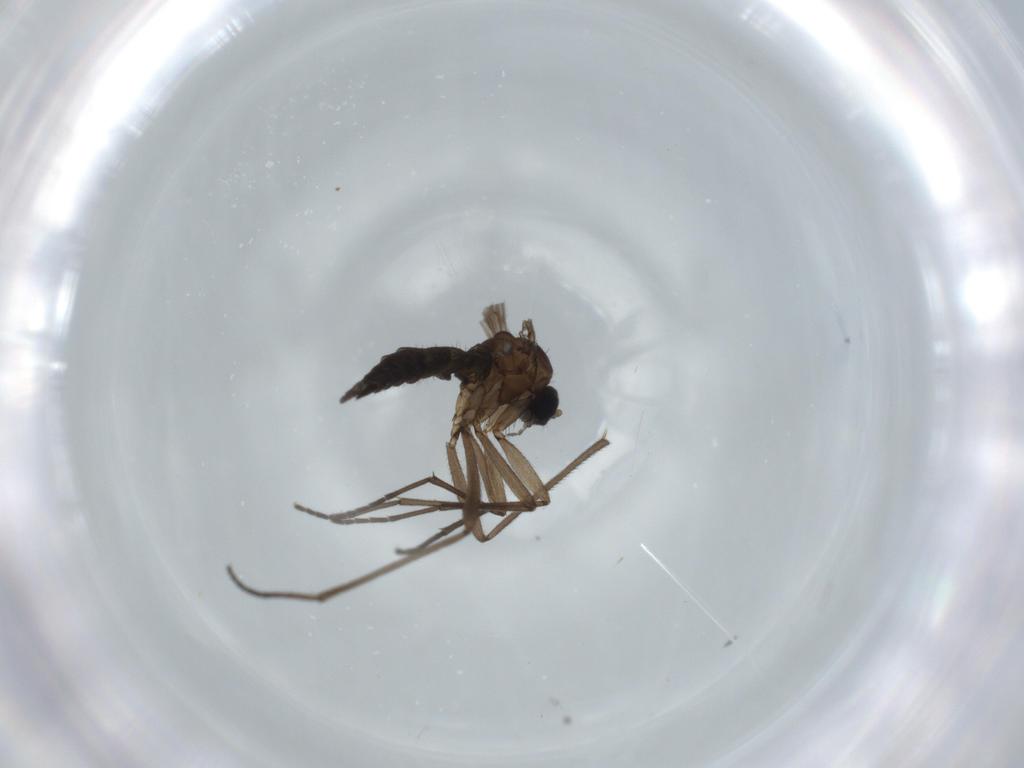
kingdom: Animalia
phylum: Arthropoda
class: Insecta
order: Diptera
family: Sciaridae
